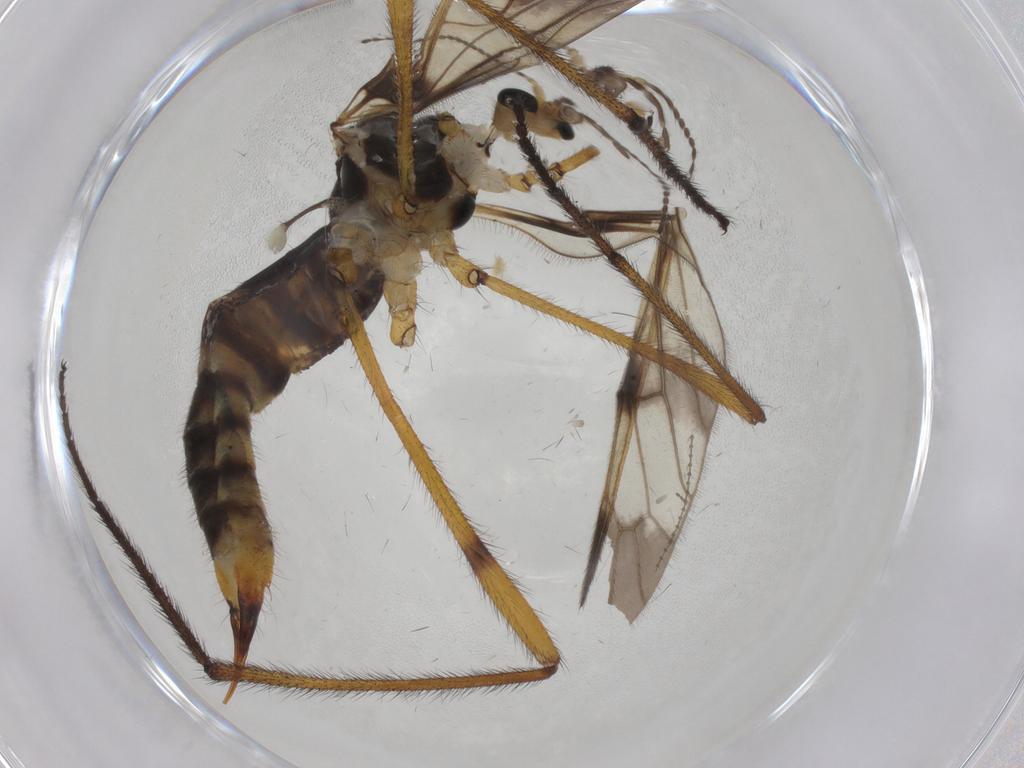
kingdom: Animalia
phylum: Arthropoda
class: Insecta
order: Diptera
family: Limoniidae
